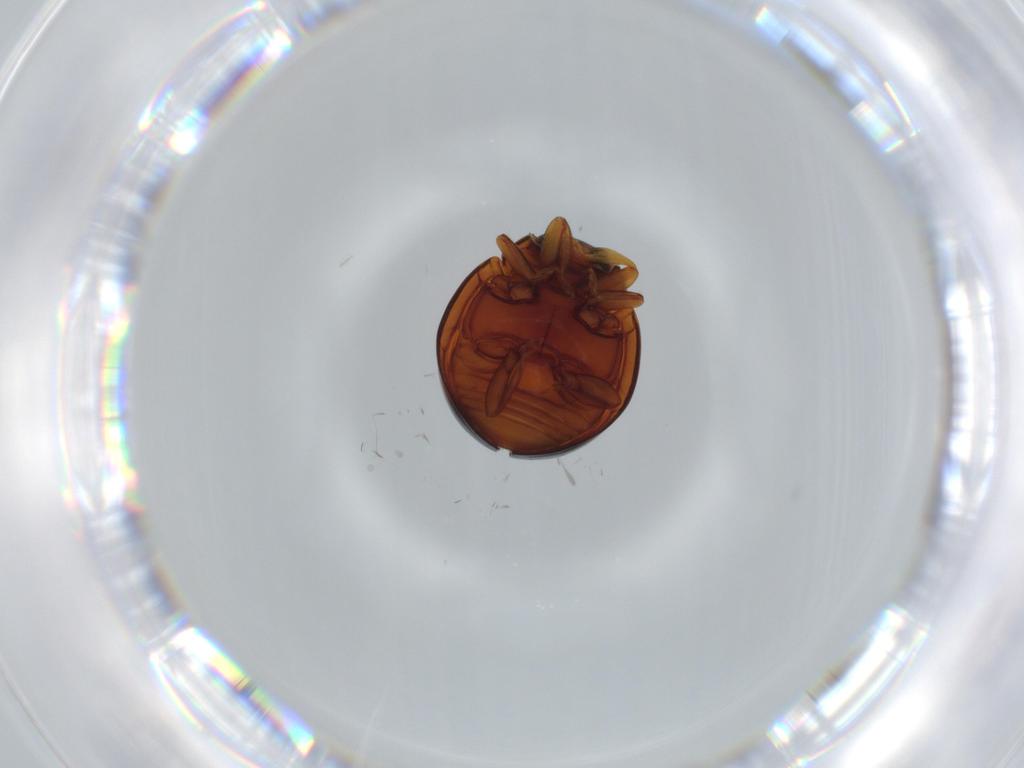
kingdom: Animalia
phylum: Arthropoda
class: Insecta
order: Coleoptera
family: Coccinellidae
